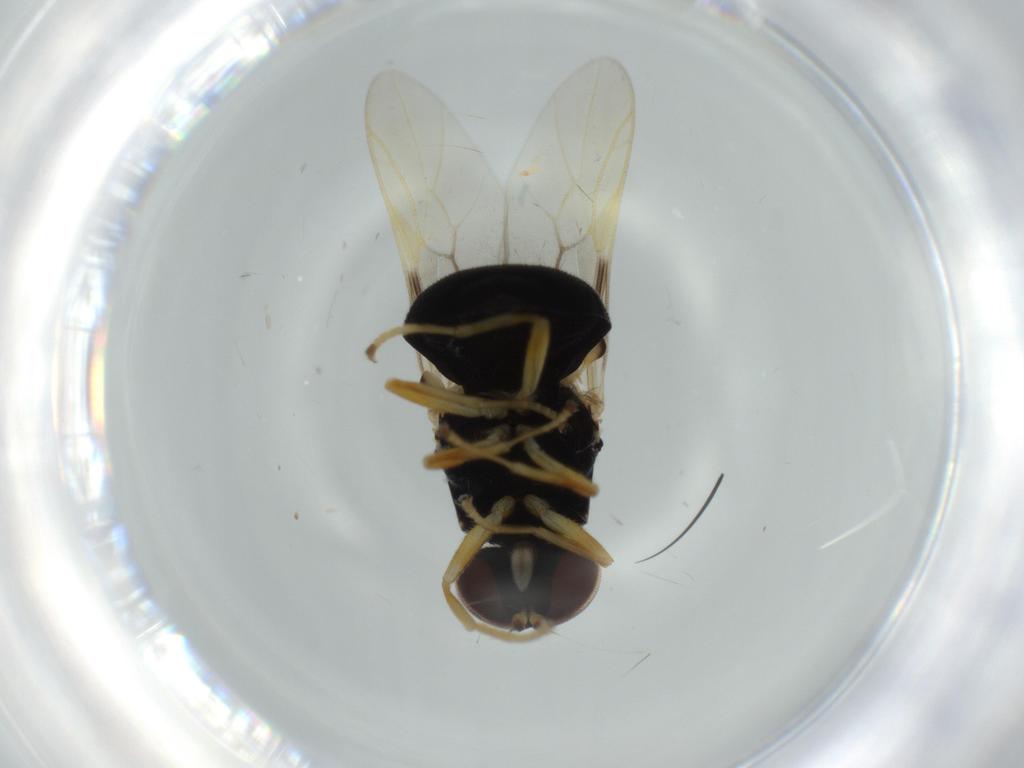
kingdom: Animalia
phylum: Arthropoda
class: Insecta
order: Diptera
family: Stratiomyidae
